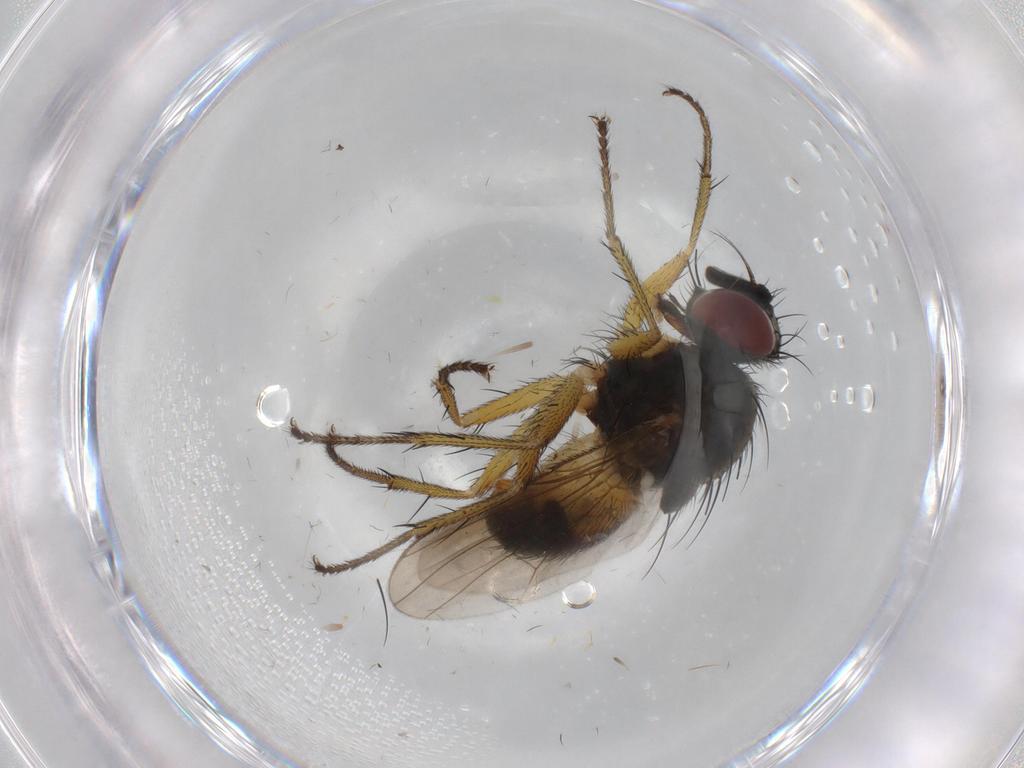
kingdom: Animalia
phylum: Arthropoda
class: Insecta
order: Diptera
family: Muscidae
